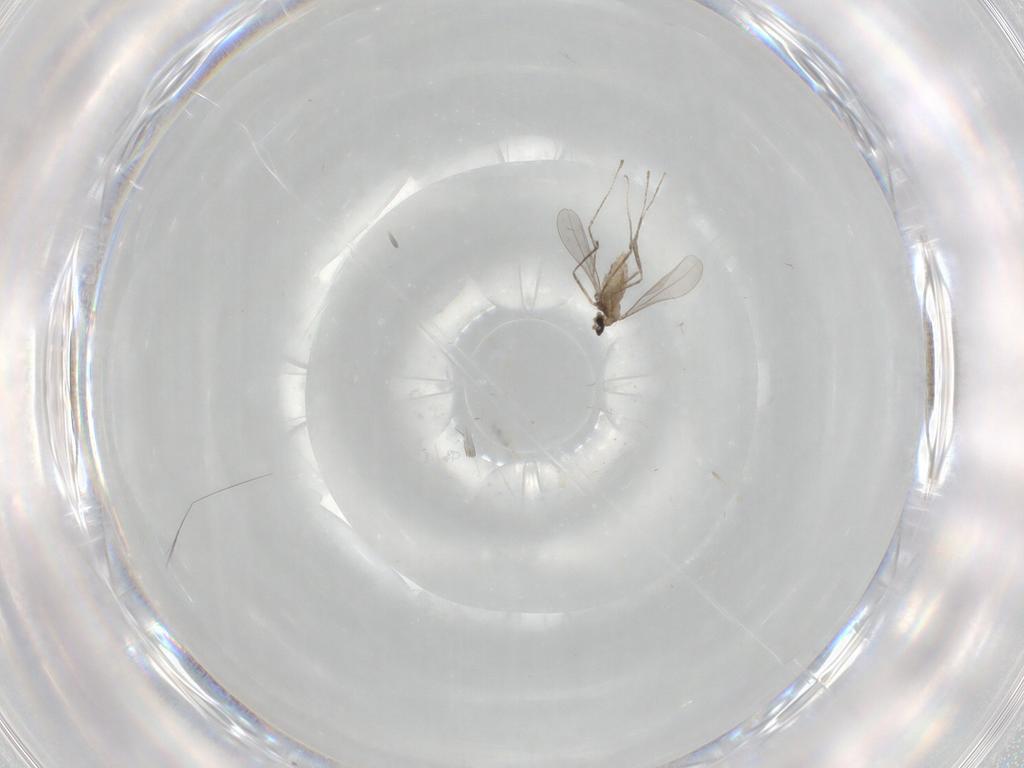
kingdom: Animalia
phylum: Arthropoda
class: Insecta
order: Diptera
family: Cecidomyiidae
